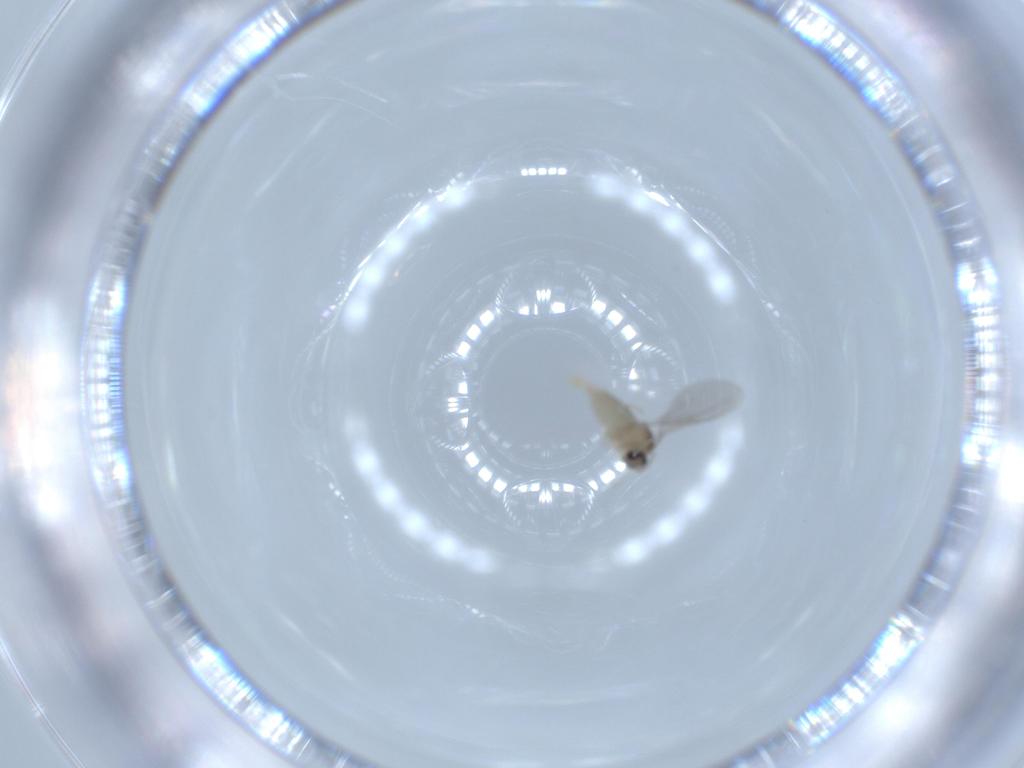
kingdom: Animalia
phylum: Arthropoda
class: Insecta
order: Diptera
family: Cecidomyiidae
